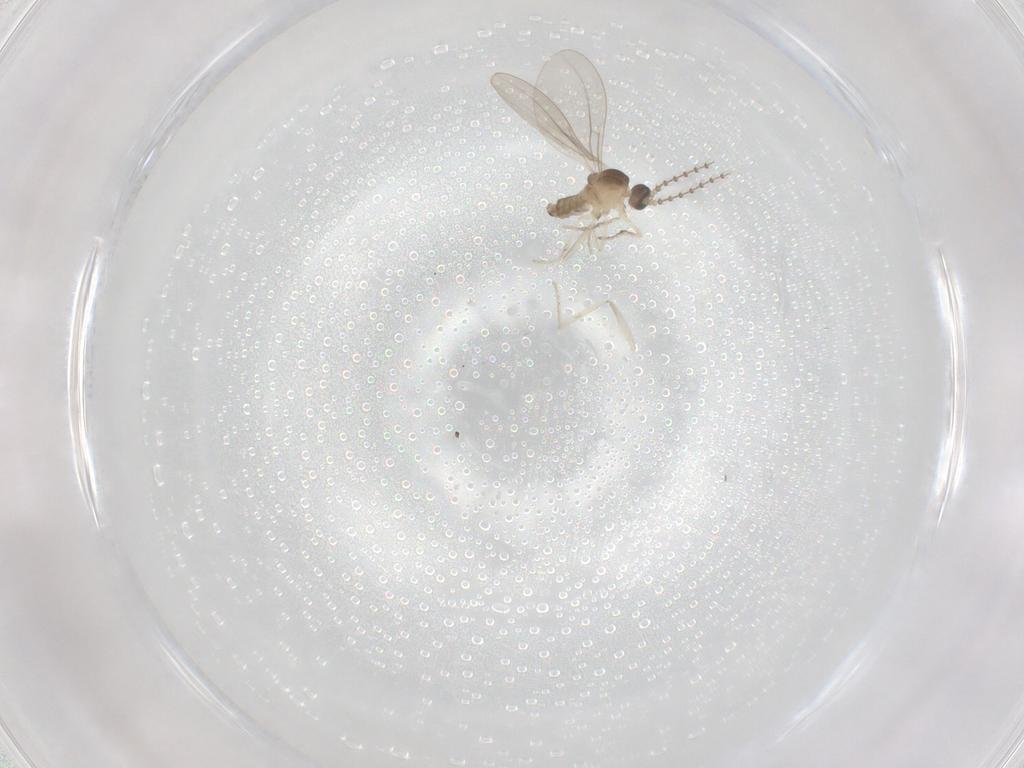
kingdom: Animalia
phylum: Arthropoda
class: Insecta
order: Diptera
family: Cecidomyiidae
